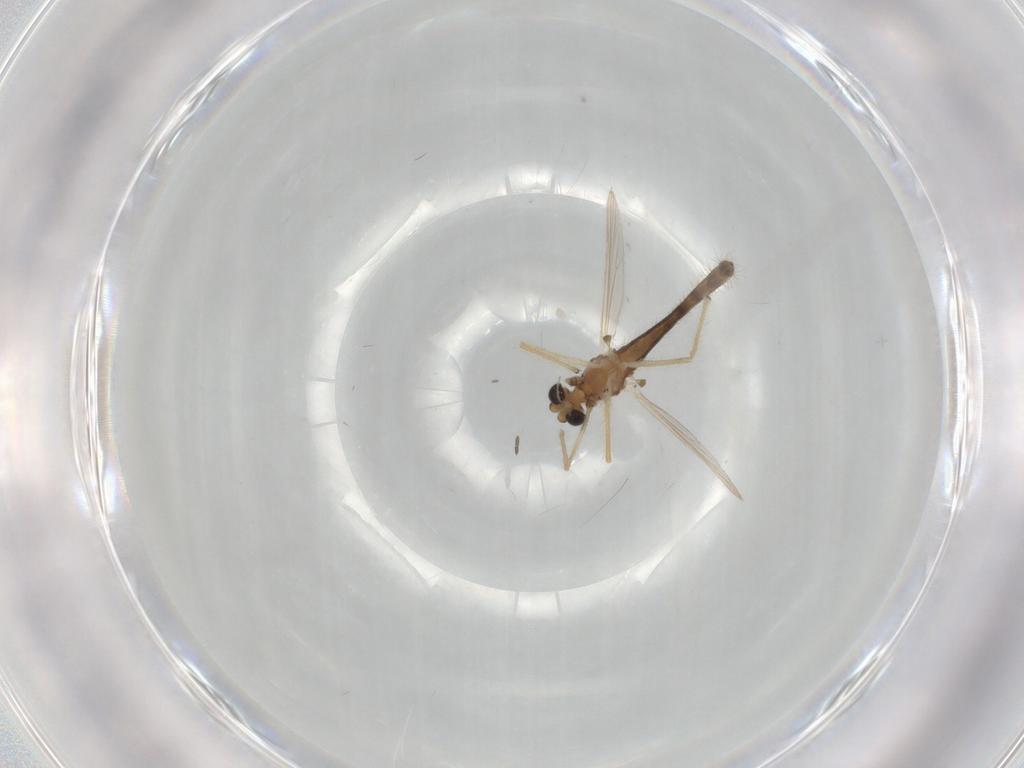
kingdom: Animalia
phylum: Arthropoda
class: Insecta
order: Diptera
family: Chironomidae
